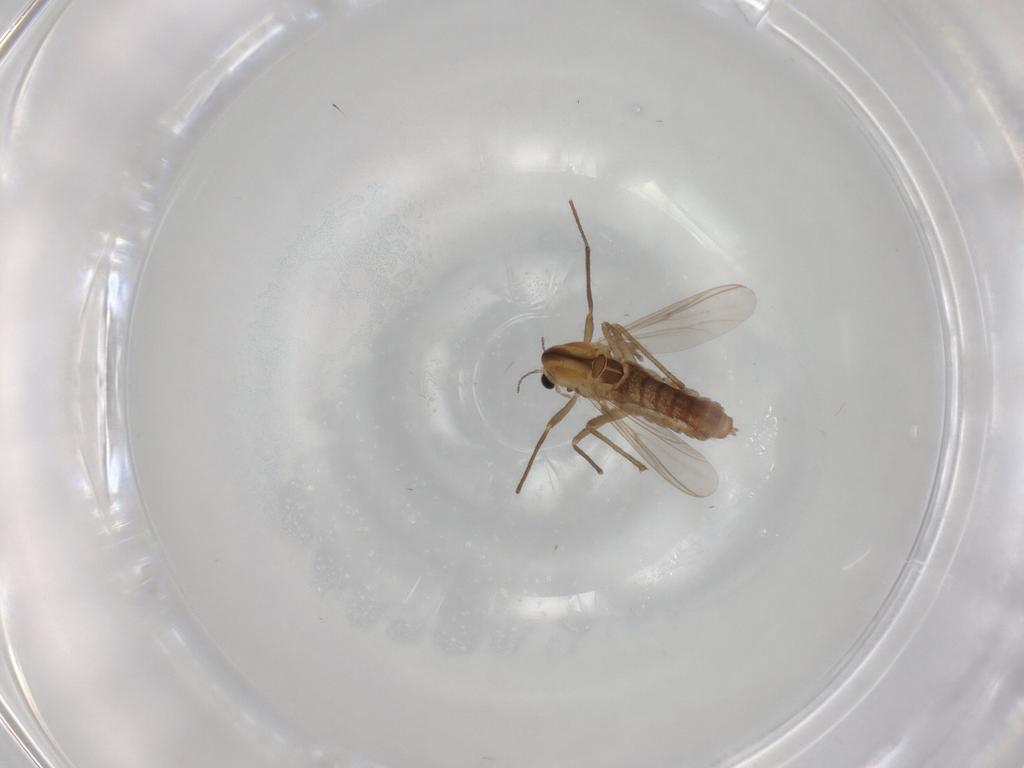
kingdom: Animalia
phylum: Arthropoda
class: Insecta
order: Diptera
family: Chironomidae
